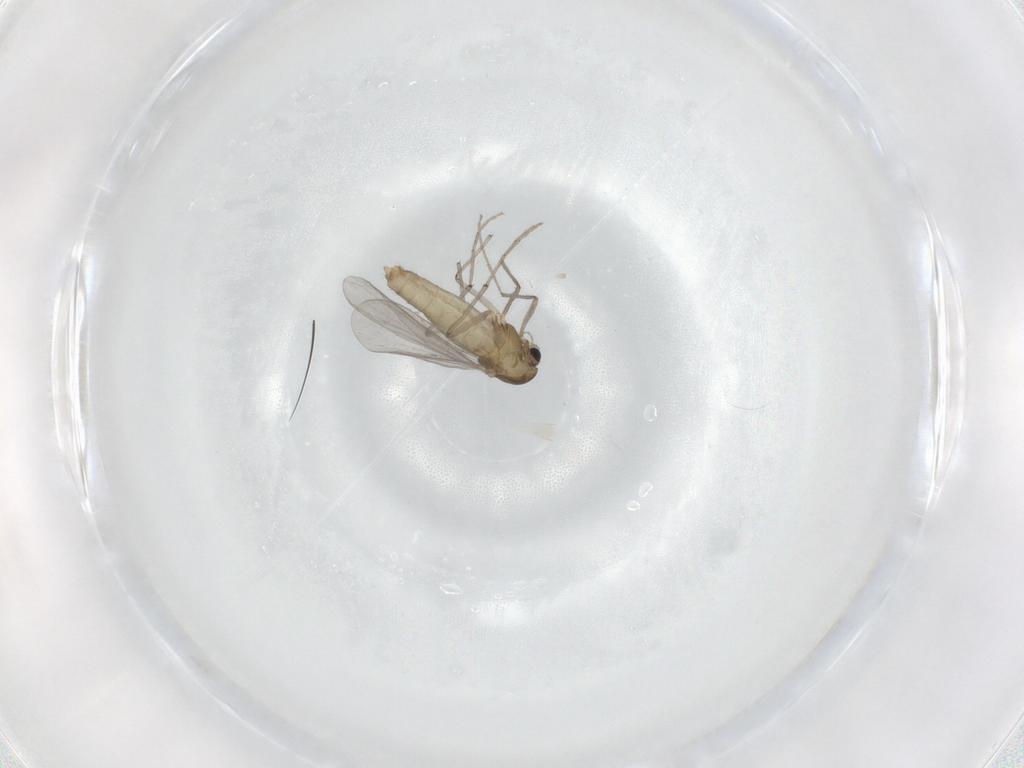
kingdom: Animalia
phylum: Arthropoda
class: Insecta
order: Diptera
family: Chironomidae
